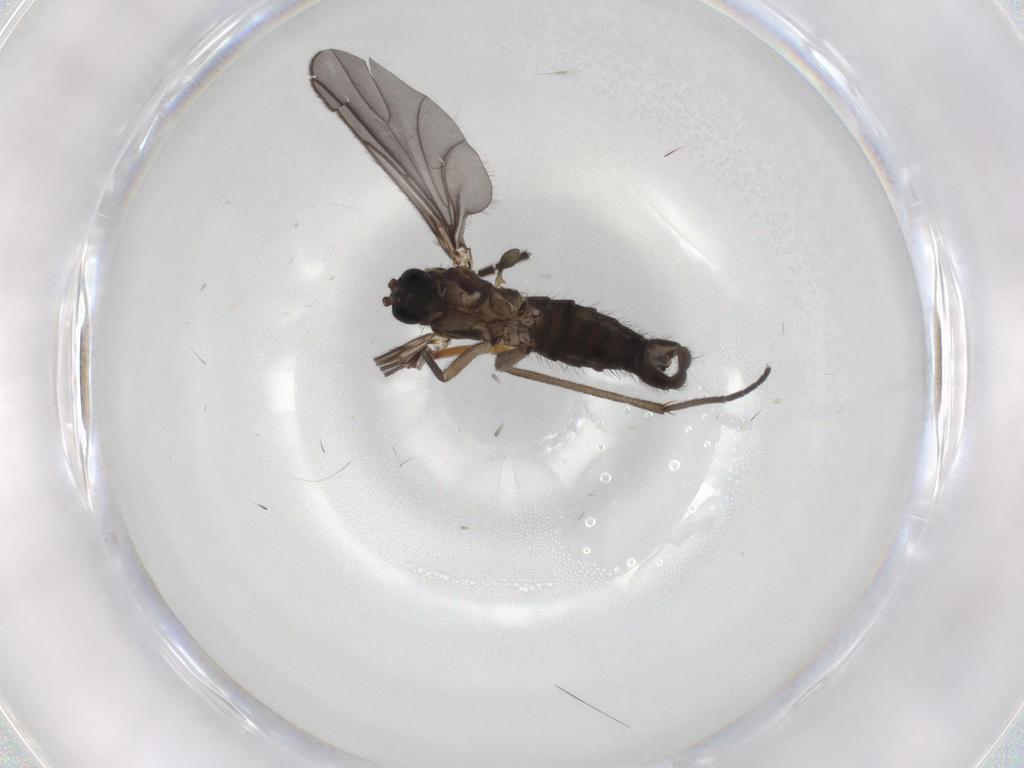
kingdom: Animalia
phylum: Arthropoda
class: Insecta
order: Diptera
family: Sciaridae
